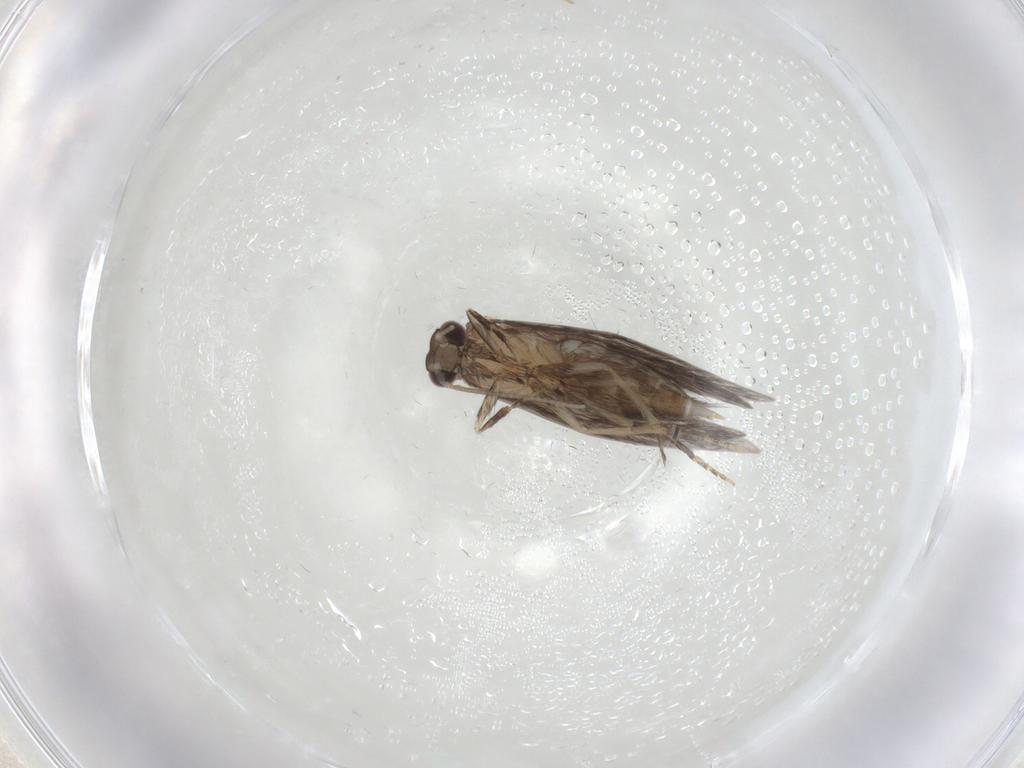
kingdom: Animalia
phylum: Arthropoda
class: Insecta
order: Trichoptera
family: Hydroptilidae
